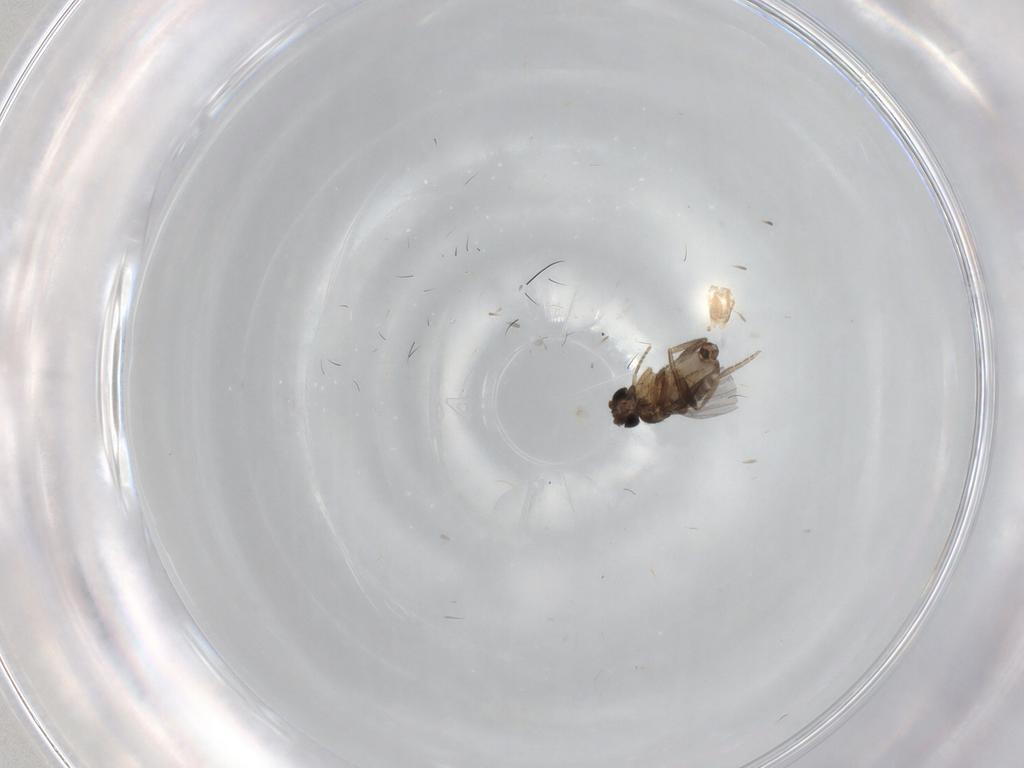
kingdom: Animalia
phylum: Arthropoda
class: Insecta
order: Diptera
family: Phoridae
